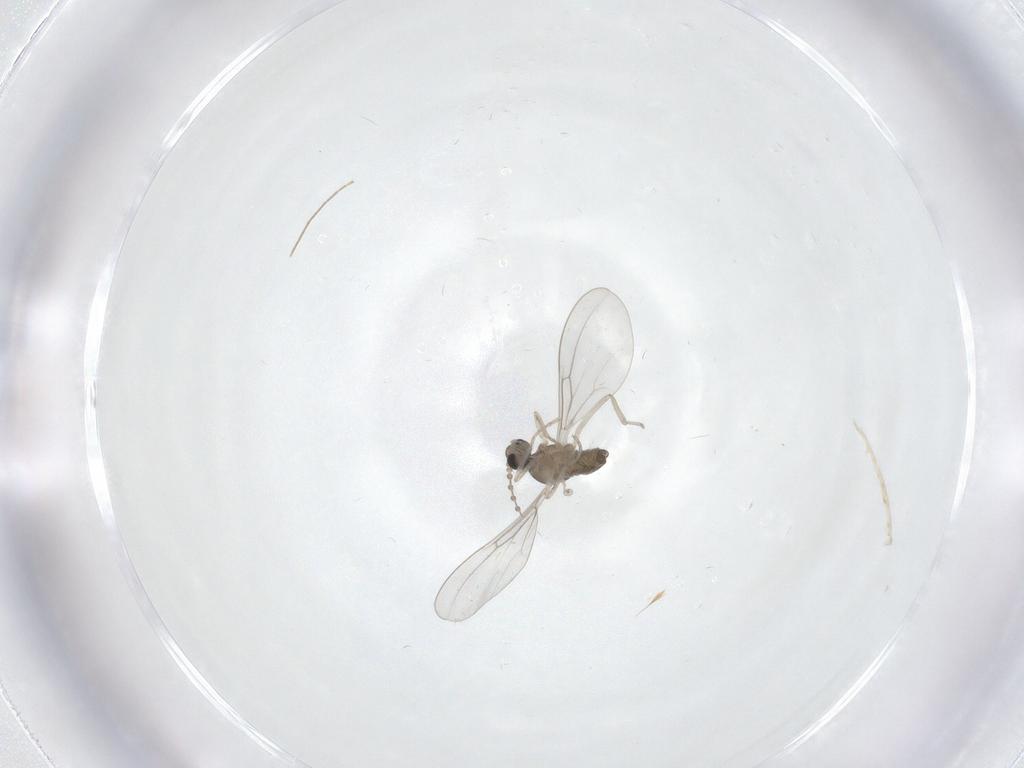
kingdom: Animalia
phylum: Arthropoda
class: Insecta
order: Diptera
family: Cecidomyiidae
